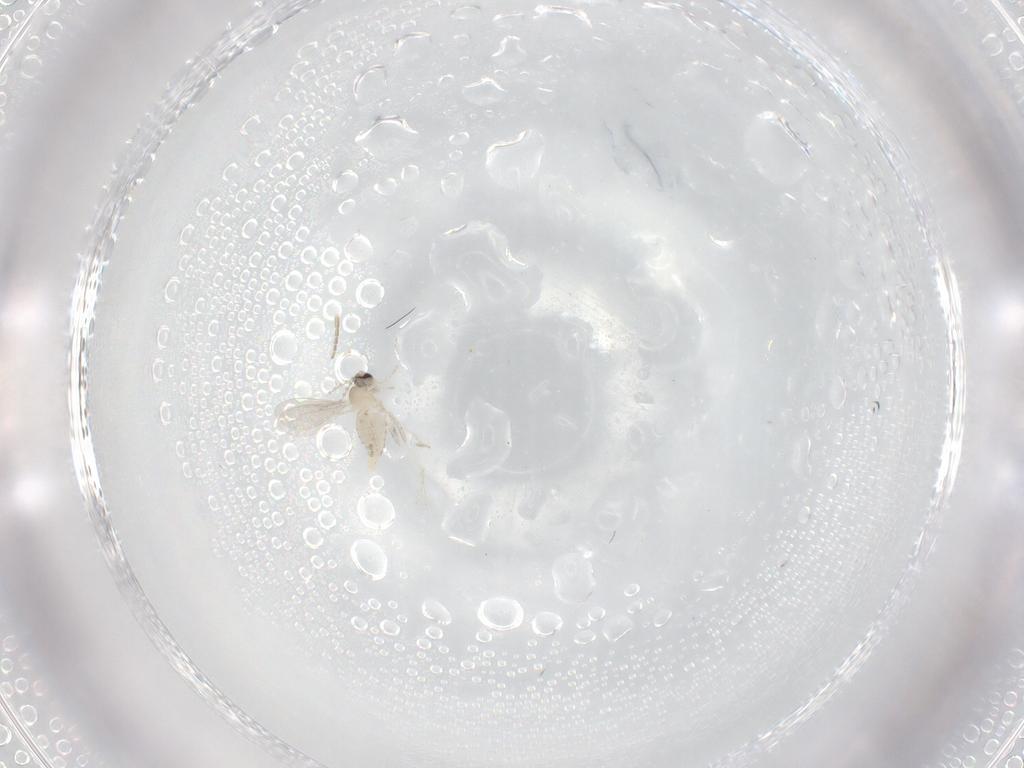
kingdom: Animalia
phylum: Arthropoda
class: Insecta
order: Diptera
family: Cecidomyiidae
